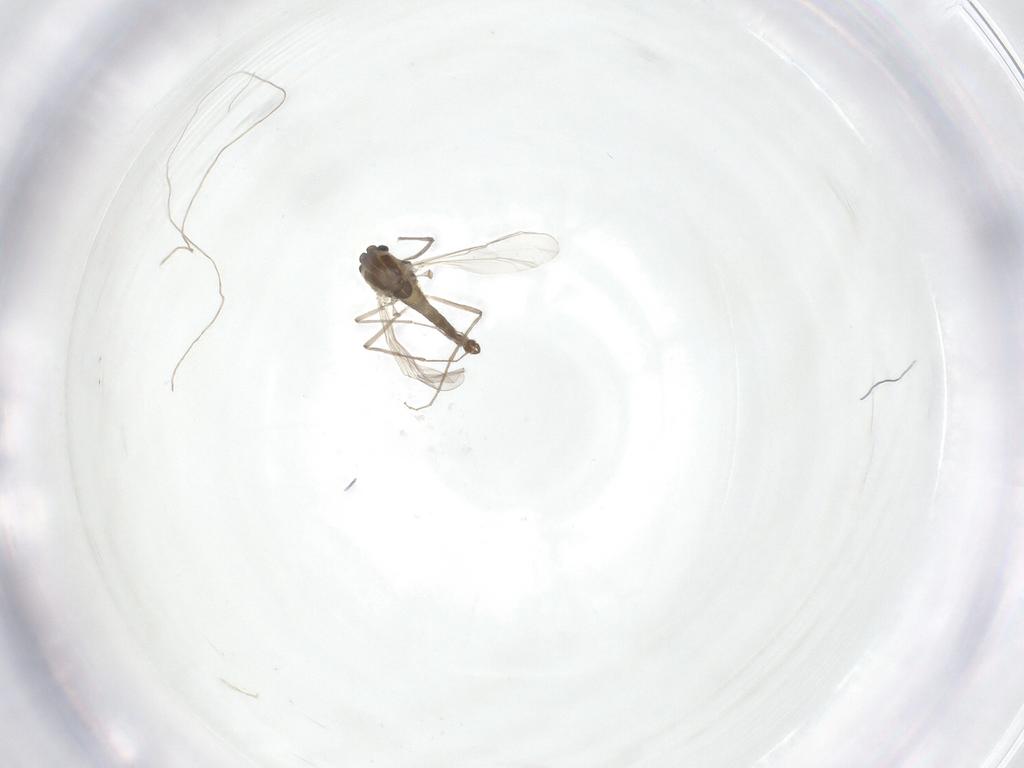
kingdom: Animalia
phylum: Arthropoda
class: Insecta
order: Diptera
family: Chironomidae
